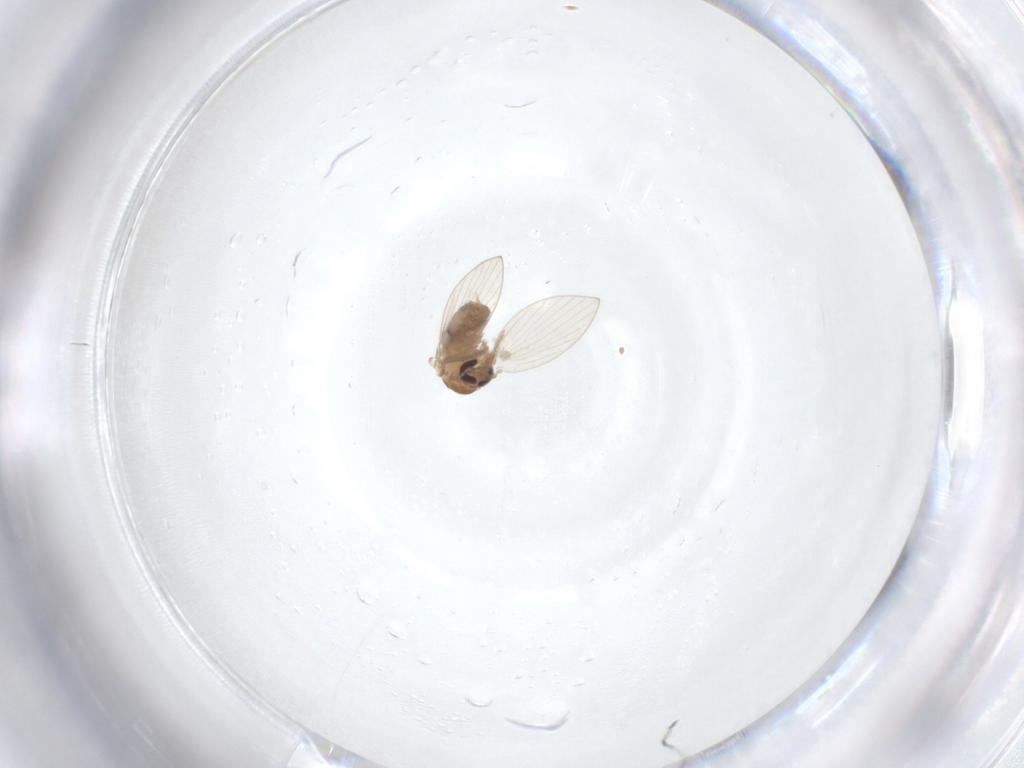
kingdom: Animalia
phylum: Arthropoda
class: Insecta
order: Diptera
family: Psychodidae
